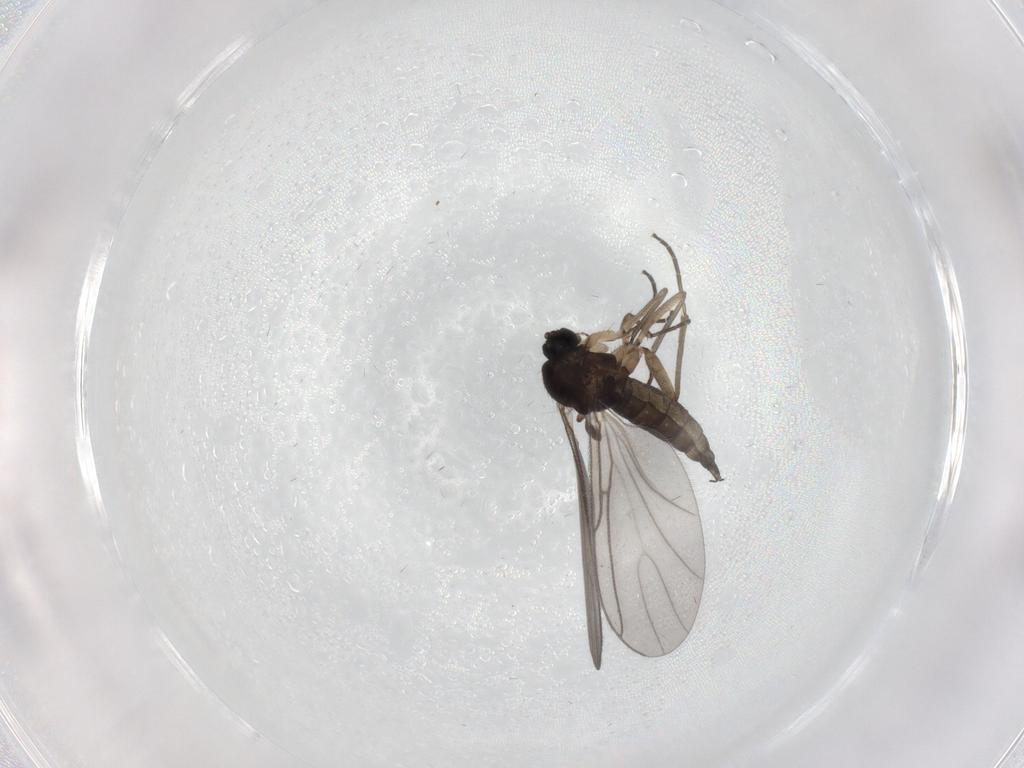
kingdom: Animalia
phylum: Arthropoda
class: Insecta
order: Diptera
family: Sciaridae
